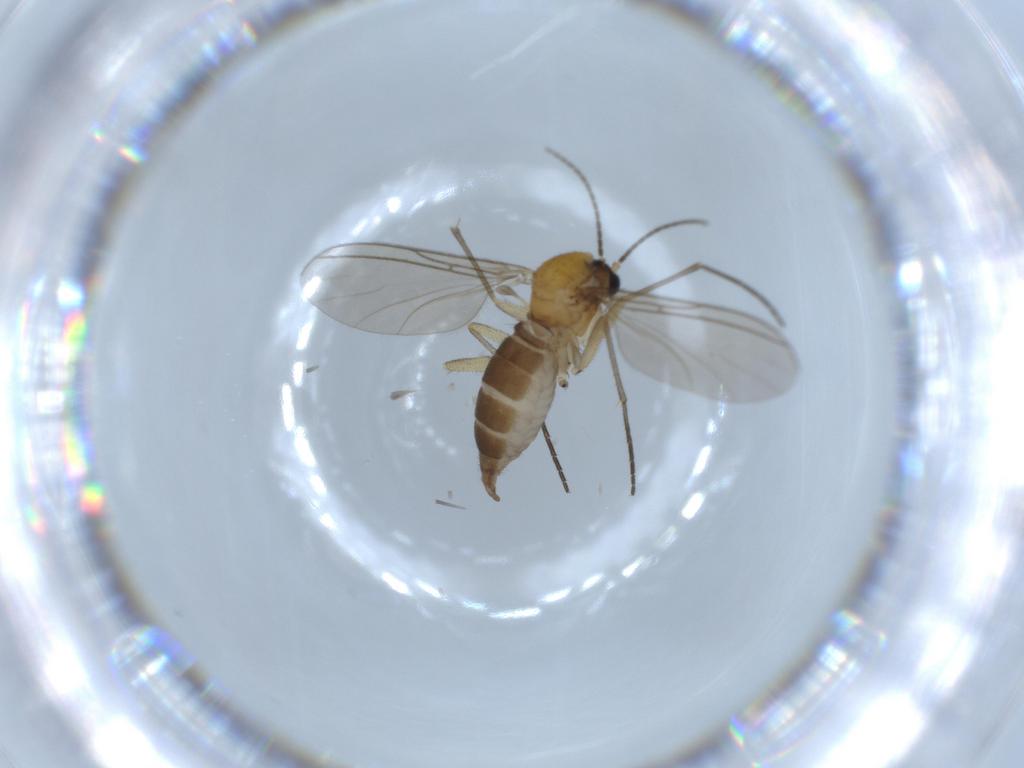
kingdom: Animalia
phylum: Arthropoda
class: Insecta
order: Diptera
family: Sciaridae
